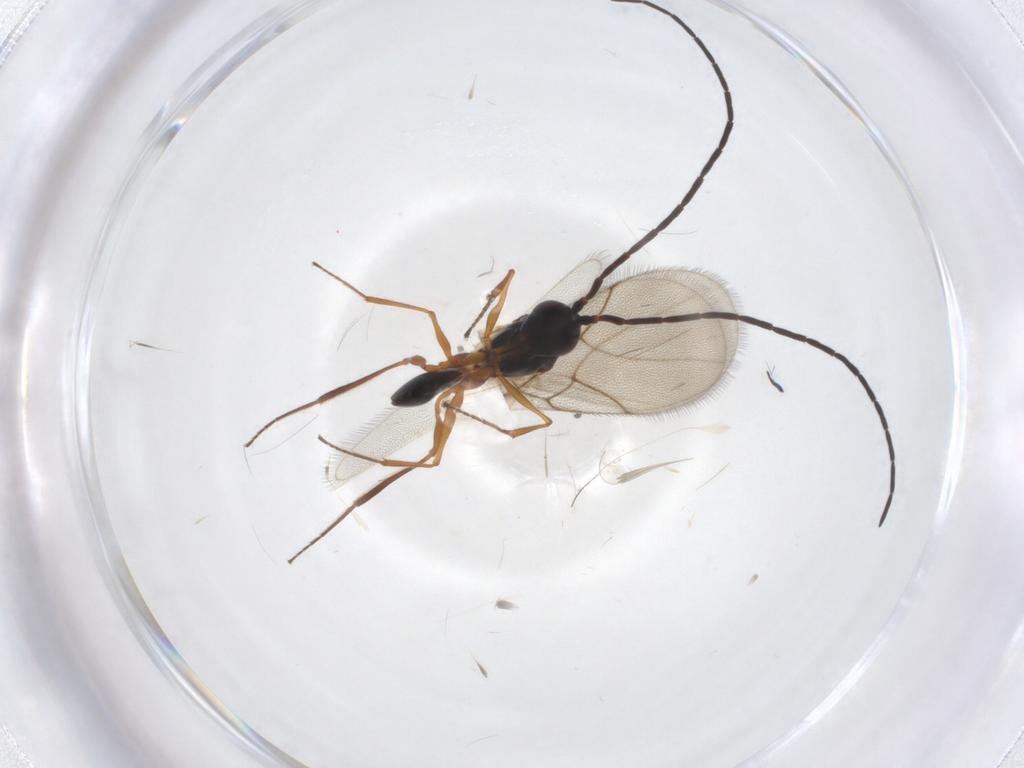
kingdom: Animalia
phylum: Arthropoda
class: Insecta
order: Hymenoptera
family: Figitidae
